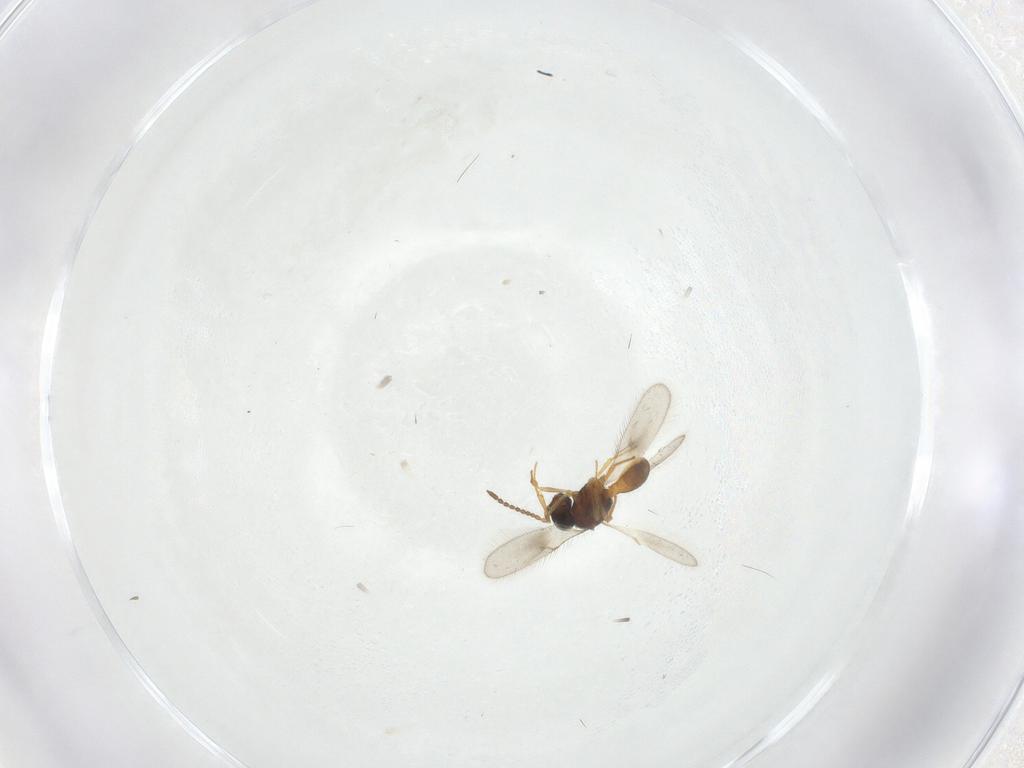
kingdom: Animalia
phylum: Arthropoda
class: Insecta
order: Hymenoptera
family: Scelionidae
